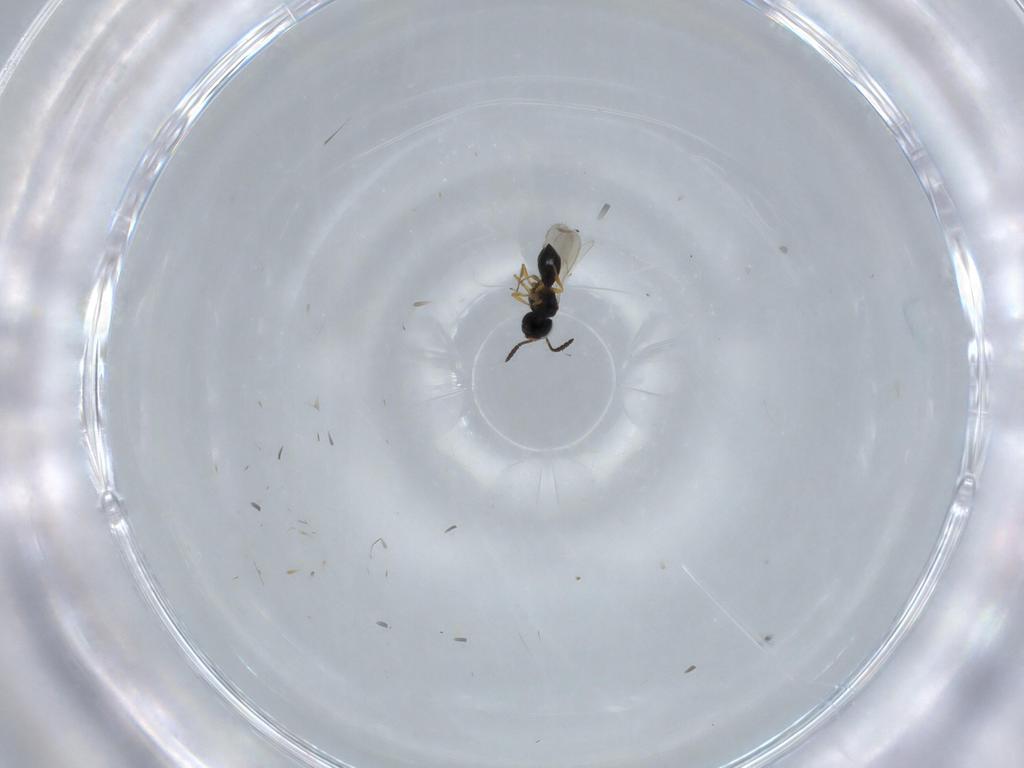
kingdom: Animalia
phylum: Arthropoda
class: Insecta
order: Hymenoptera
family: Scelionidae
